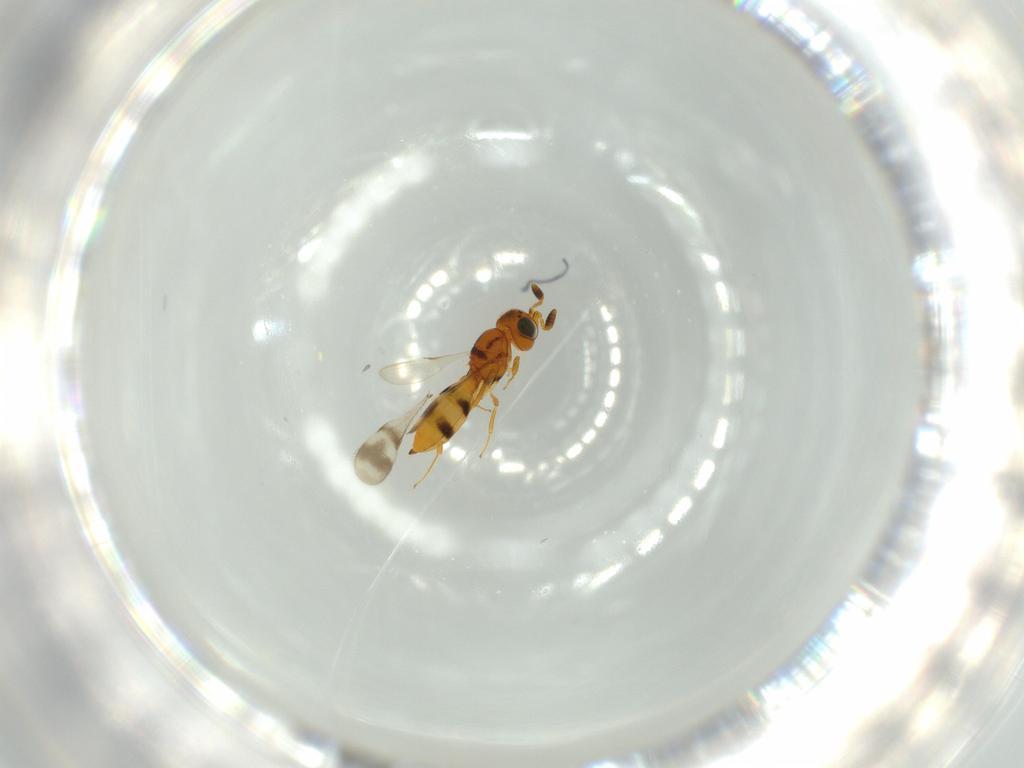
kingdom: Animalia
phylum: Arthropoda
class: Insecta
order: Hymenoptera
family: Scelionidae
